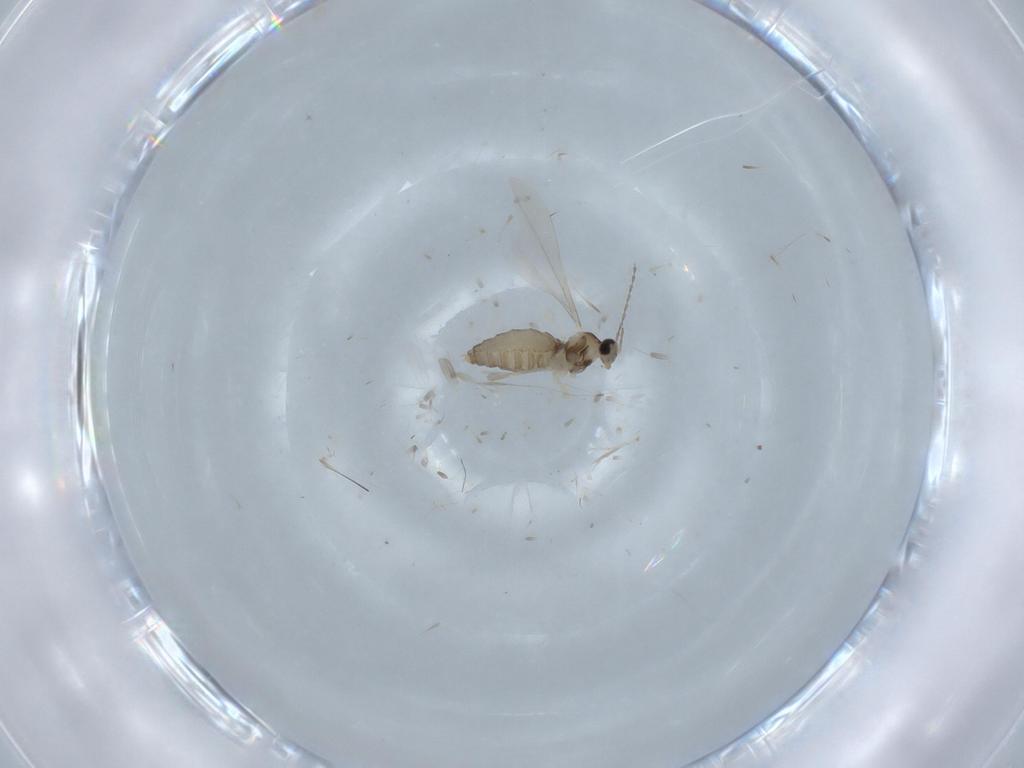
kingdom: Animalia
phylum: Arthropoda
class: Insecta
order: Diptera
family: Cecidomyiidae
